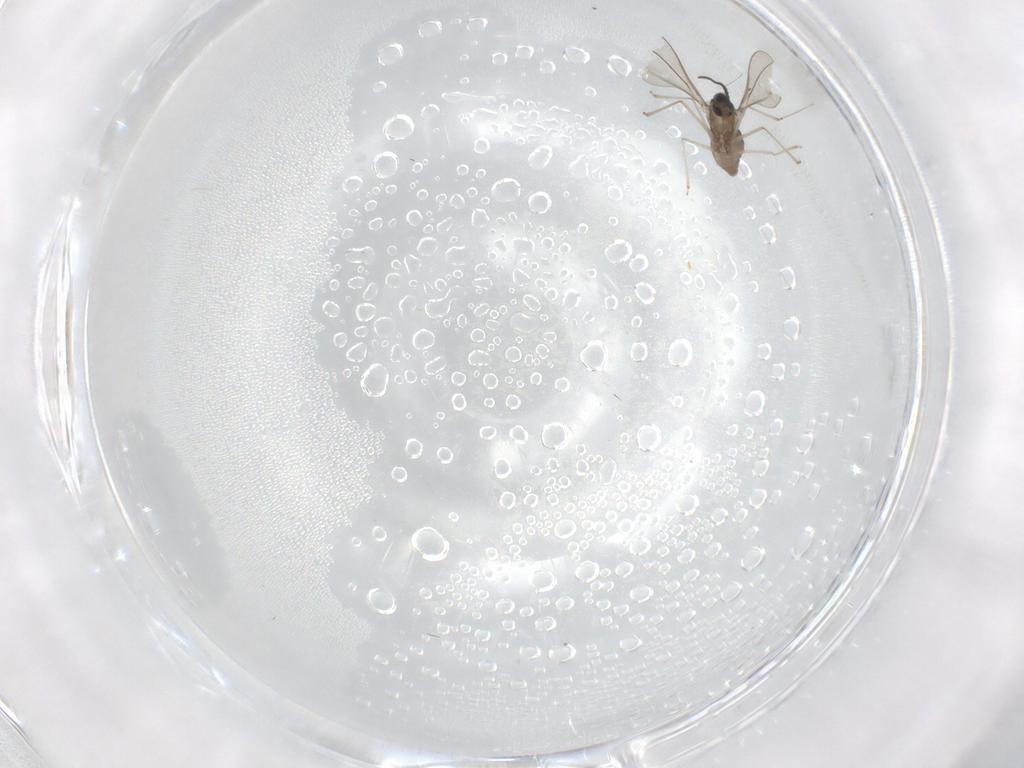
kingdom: Animalia
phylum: Arthropoda
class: Insecta
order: Diptera
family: Cecidomyiidae
